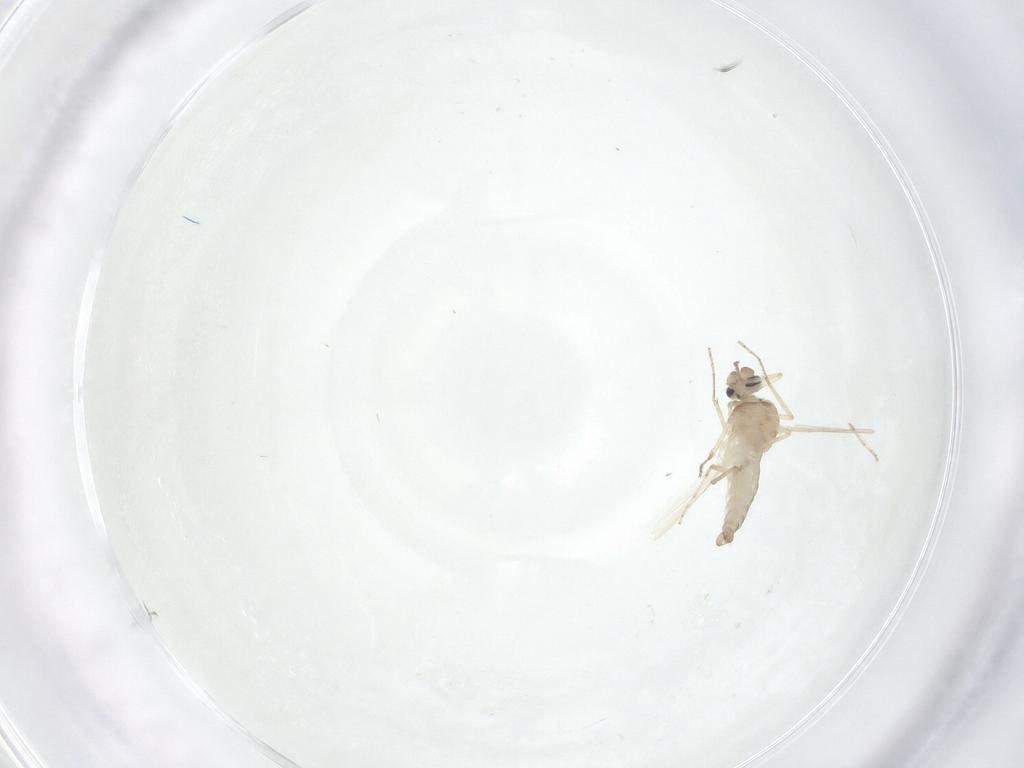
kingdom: Animalia
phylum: Arthropoda
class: Insecta
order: Diptera
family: Ceratopogonidae
